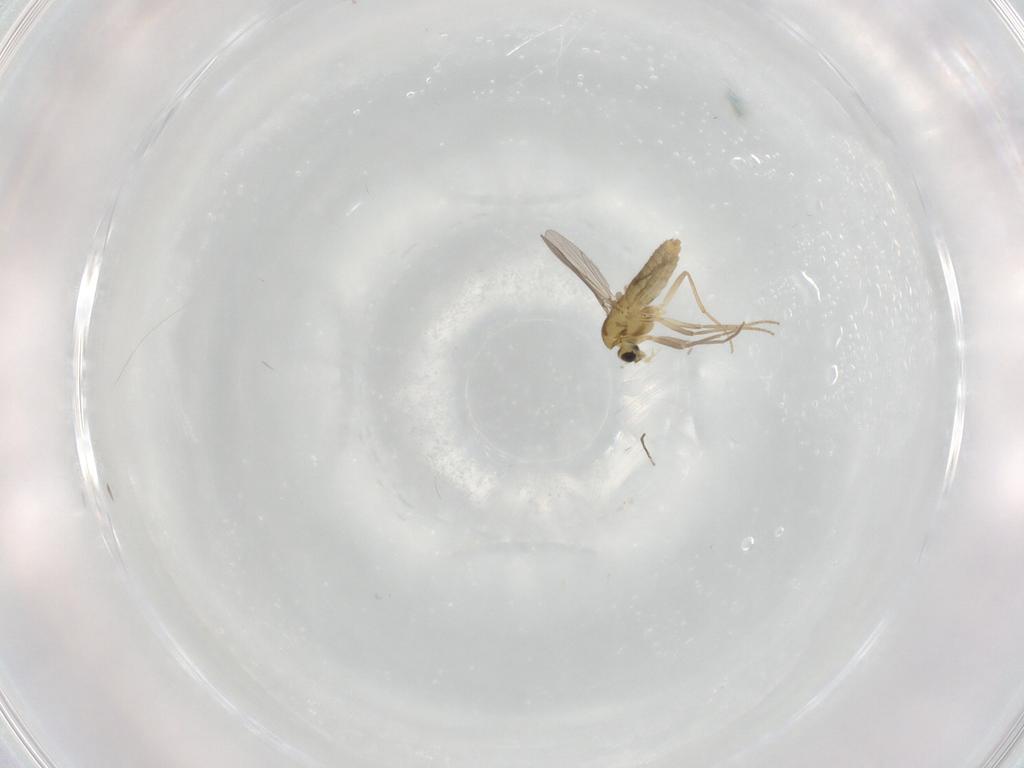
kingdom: Animalia
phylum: Arthropoda
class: Insecta
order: Diptera
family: Chironomidae
